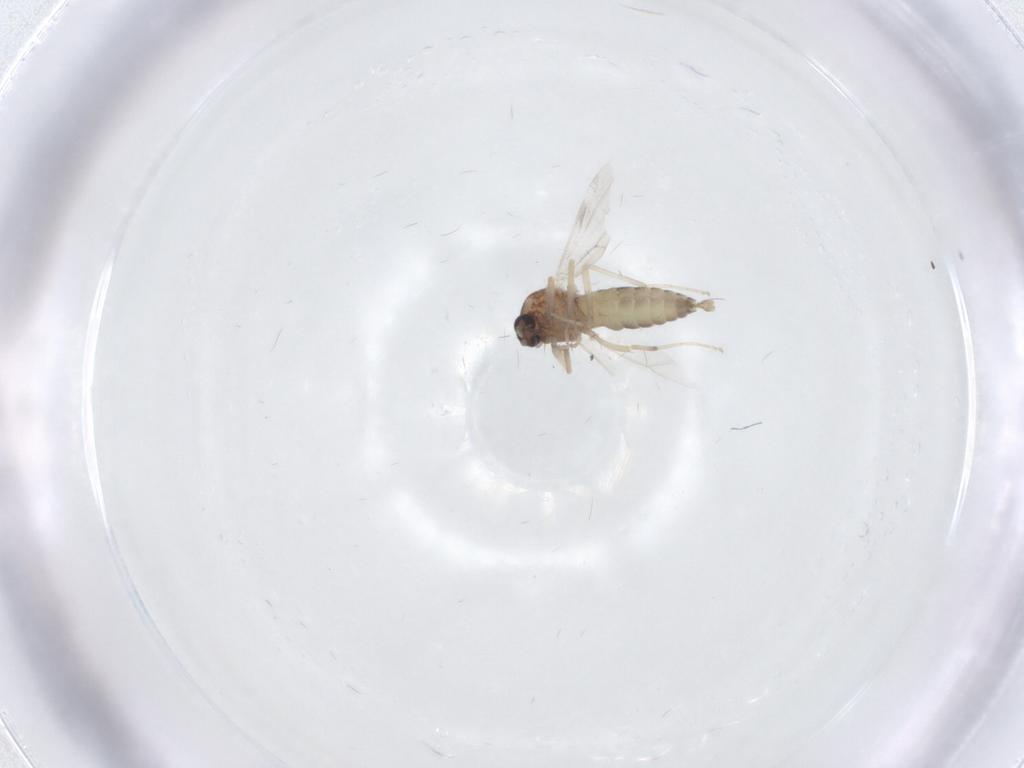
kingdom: Animalia
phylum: Arthropoda
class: Insecta
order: Diptera
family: Ceratopogonidae
